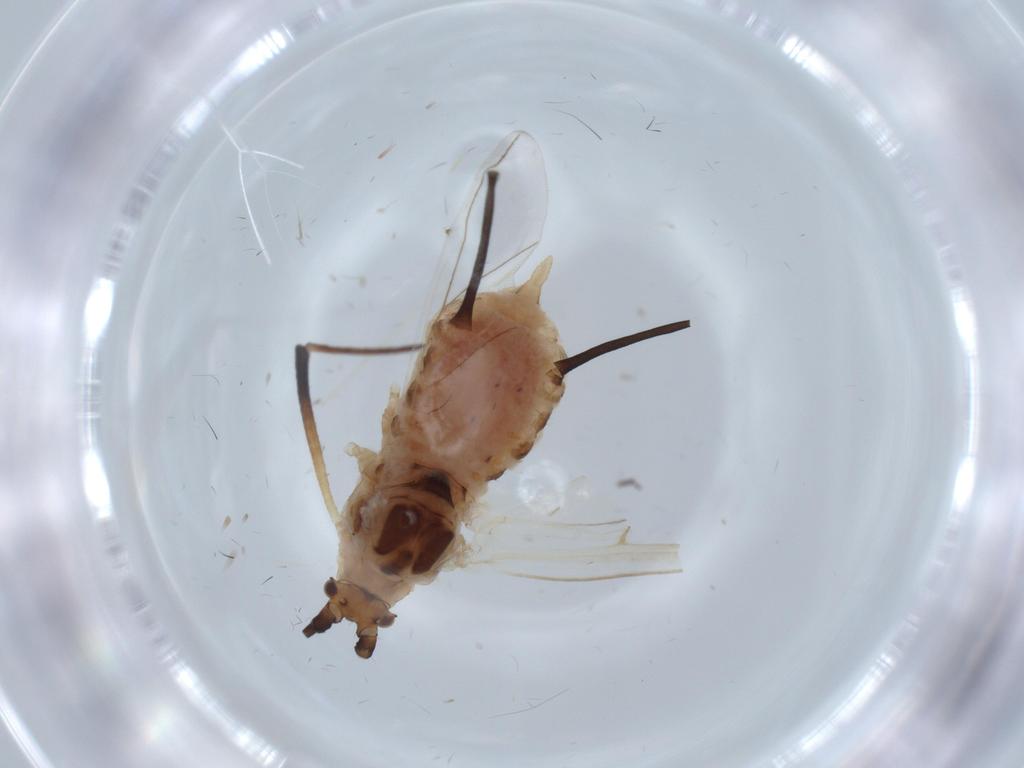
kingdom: Animalia
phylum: Arthropoda
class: Insecta
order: Hemiptera
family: Aphididae
